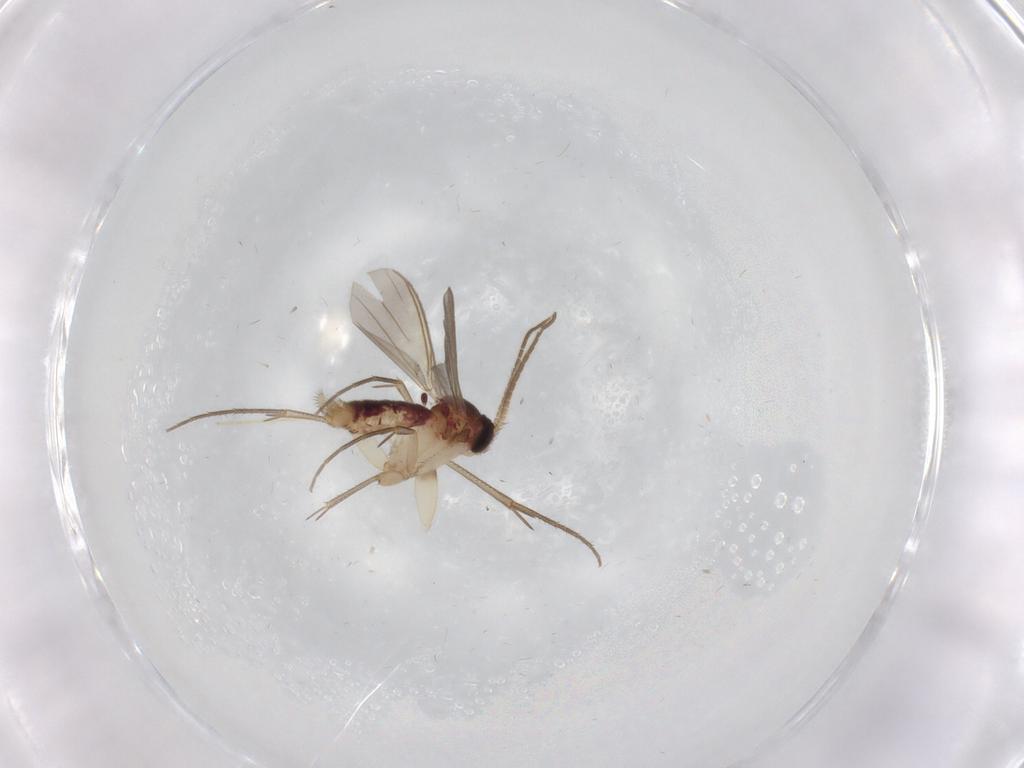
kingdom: Animalia
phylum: Arthropoda
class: Insecta
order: Diptera
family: Mycetophilidae
